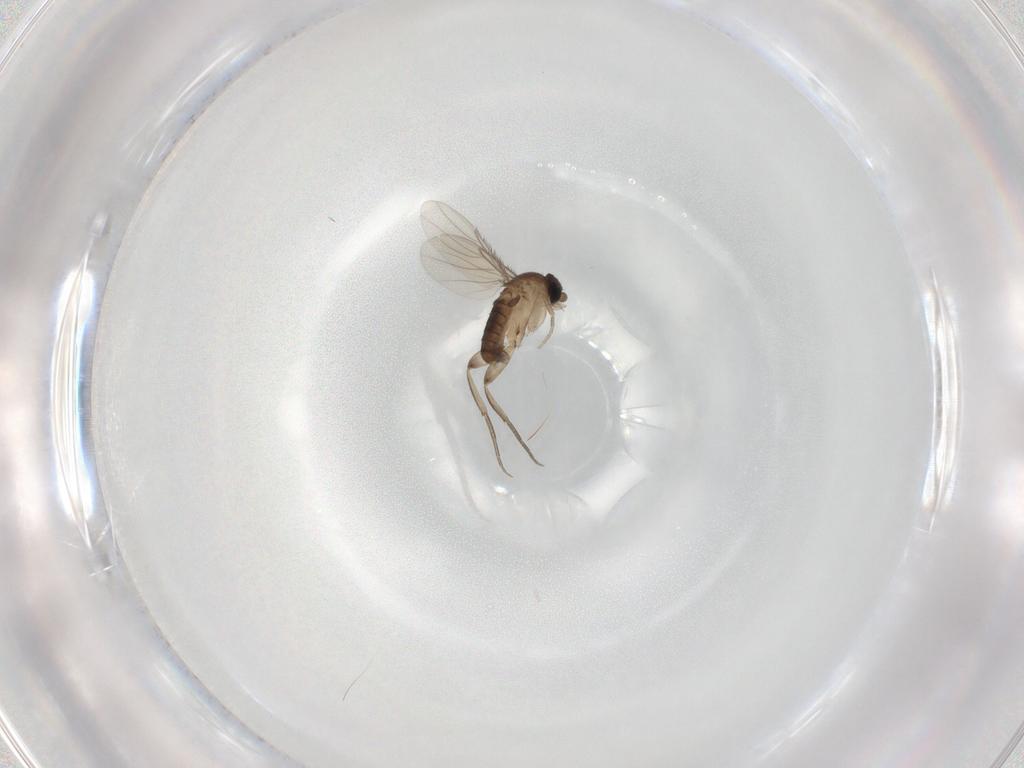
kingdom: Animalia
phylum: Arthropoda
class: Insecta
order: Diptera
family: Phoridae
